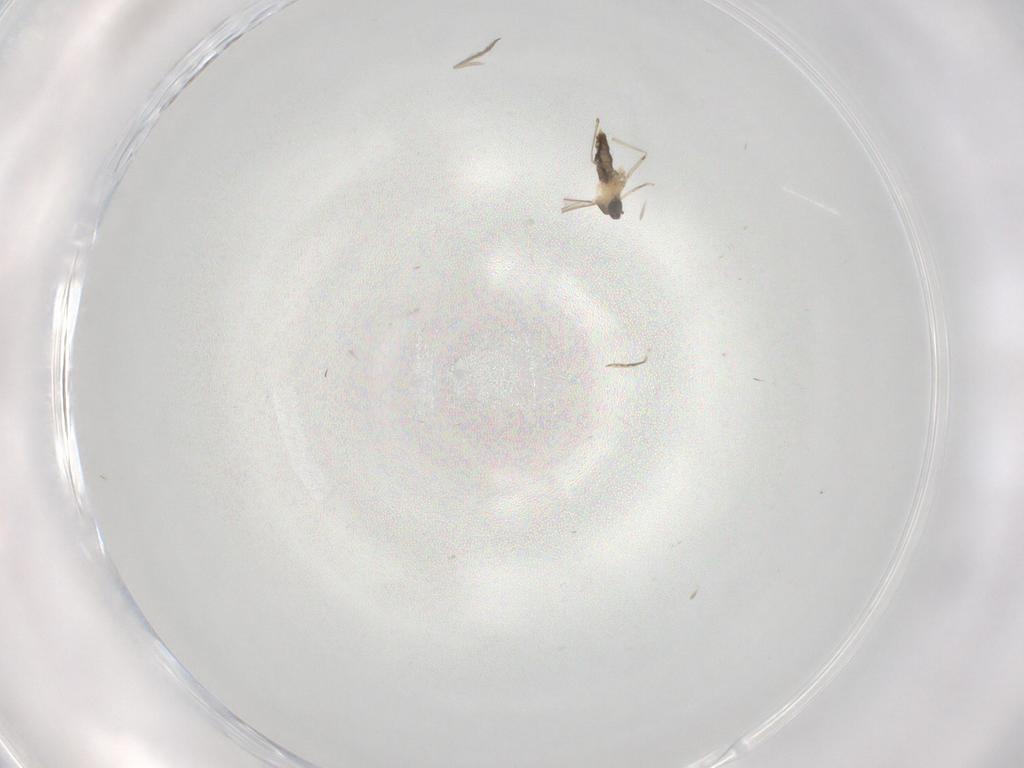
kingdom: Animalia
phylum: Arthropoda
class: Insecta
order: Diptera
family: Psychodidae
